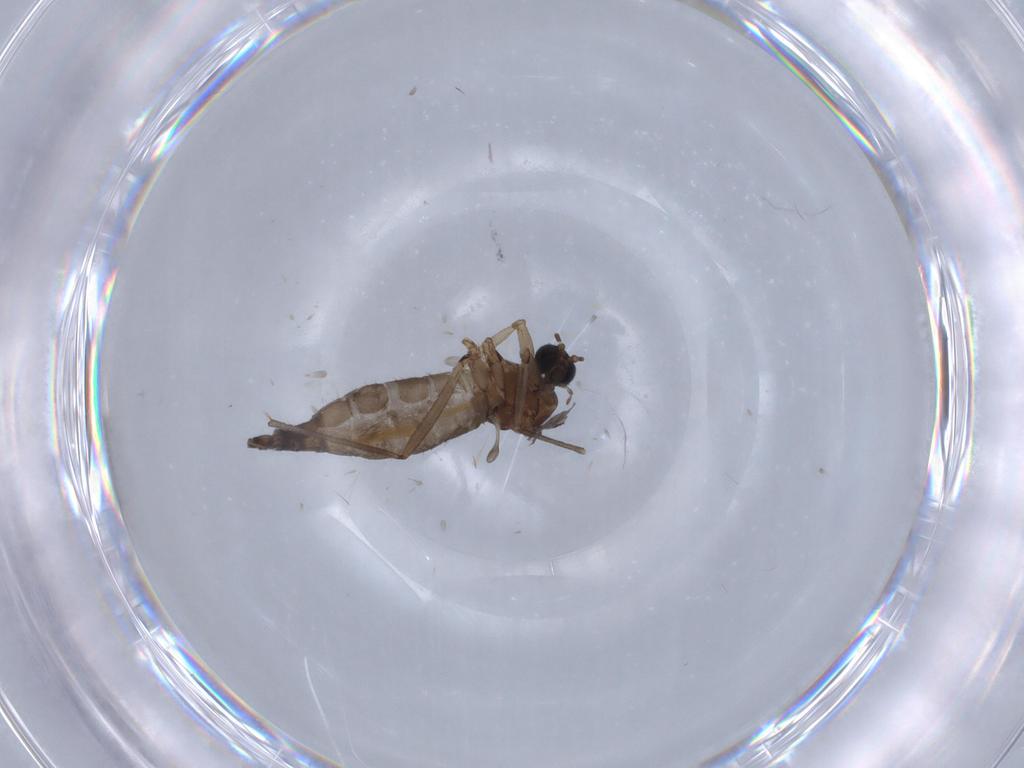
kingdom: Animalia
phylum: Arthropoda
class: Insecta
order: Diptera
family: Sciaridae
